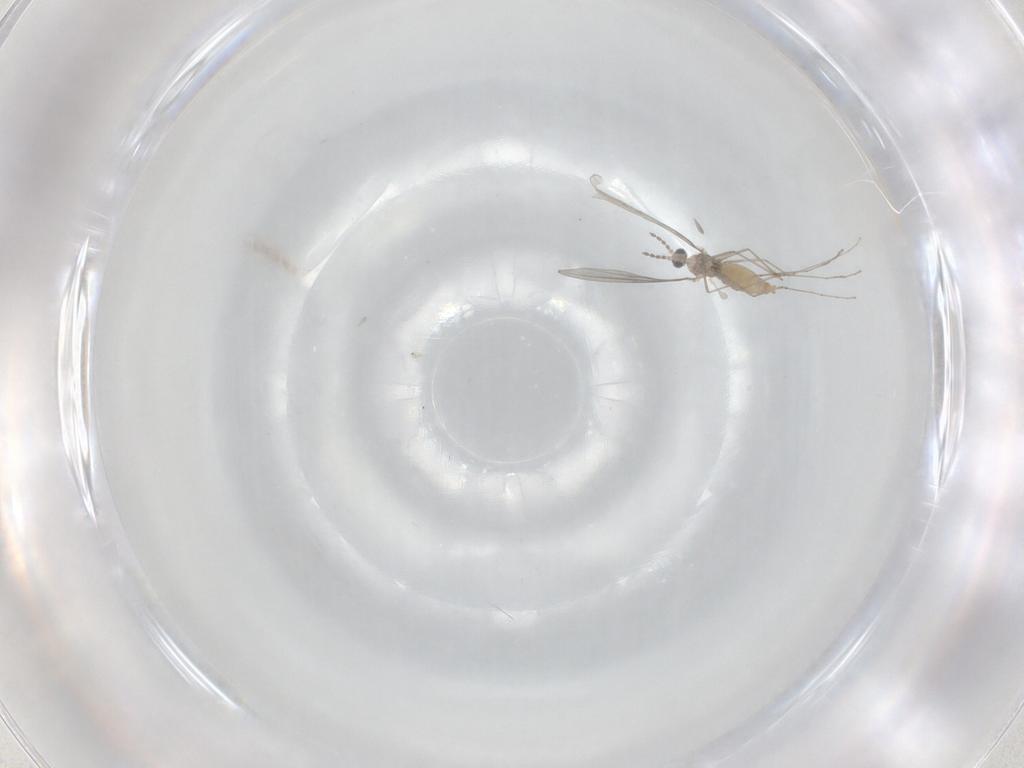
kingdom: Animalia
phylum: Arthropoda
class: Insecta
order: Diptera
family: Cecidomyiidae
